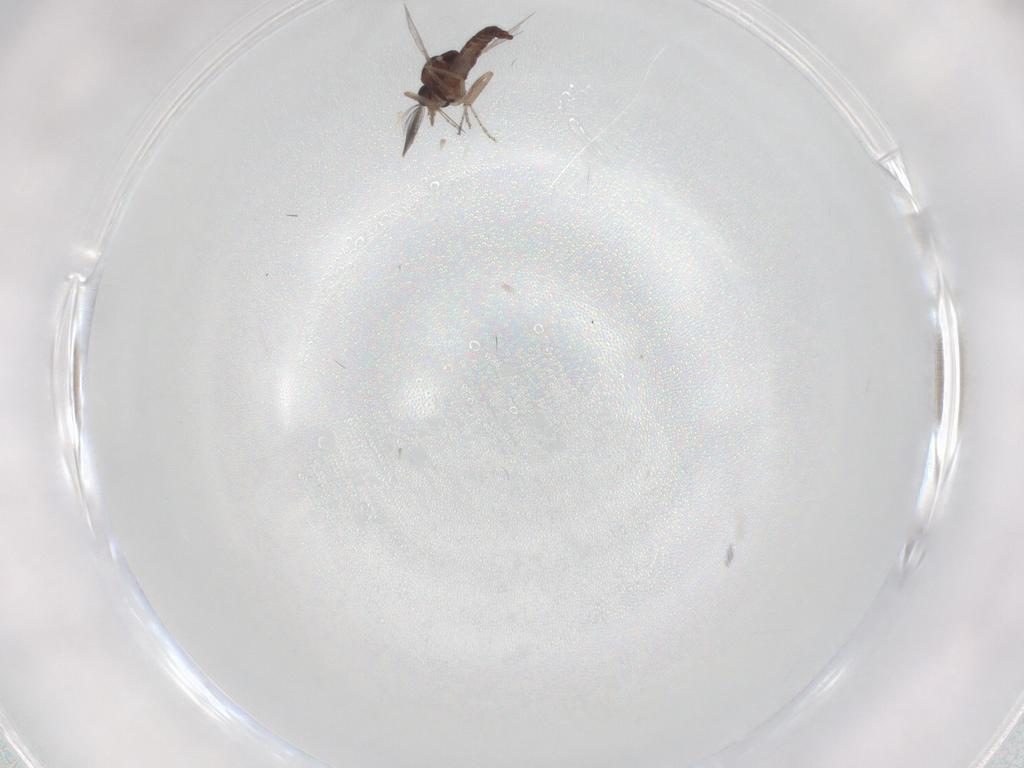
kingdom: Animalia
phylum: Arthropoda
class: Insecta
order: Diptera
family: Ceratopogonidae
